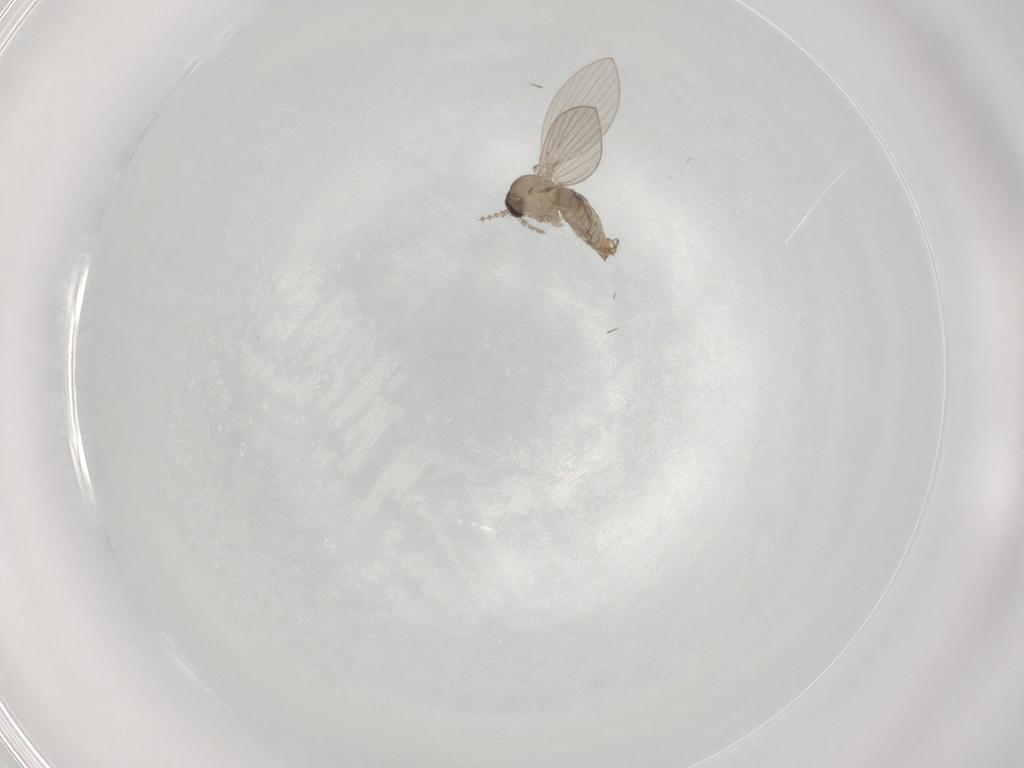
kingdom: Animalia
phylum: Arthropoda
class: Insecta
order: Diptera
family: Psychodidae
